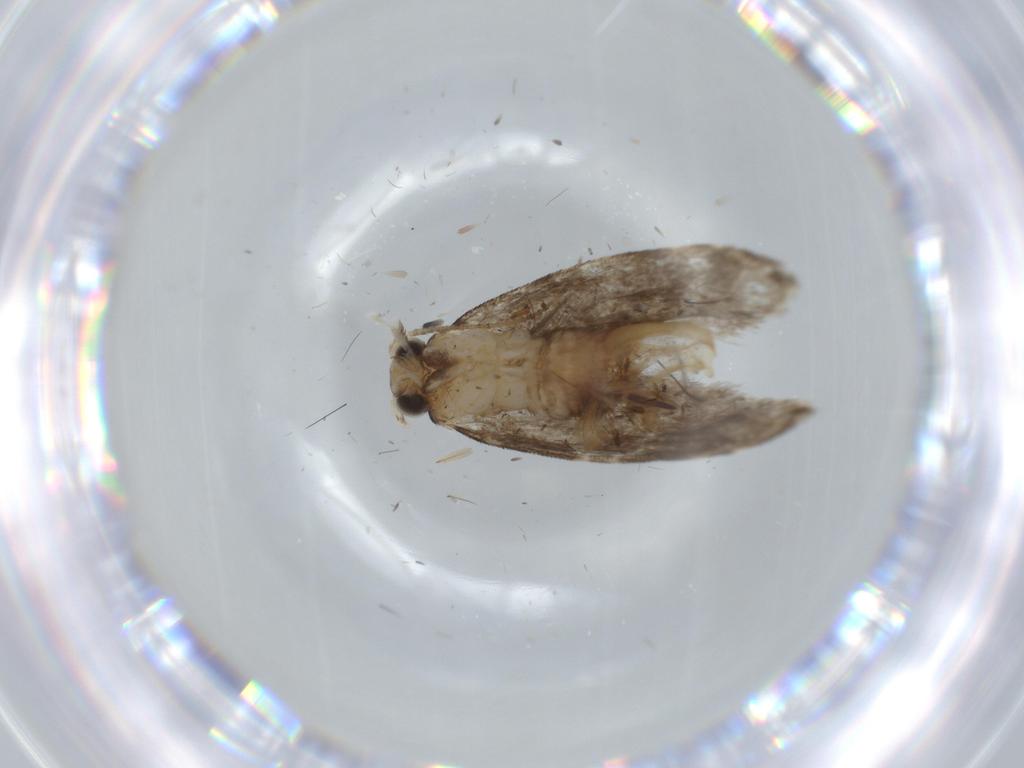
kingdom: Animalia
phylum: Arthropoda
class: Insecta
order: Lepidoptera
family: Tineidae
